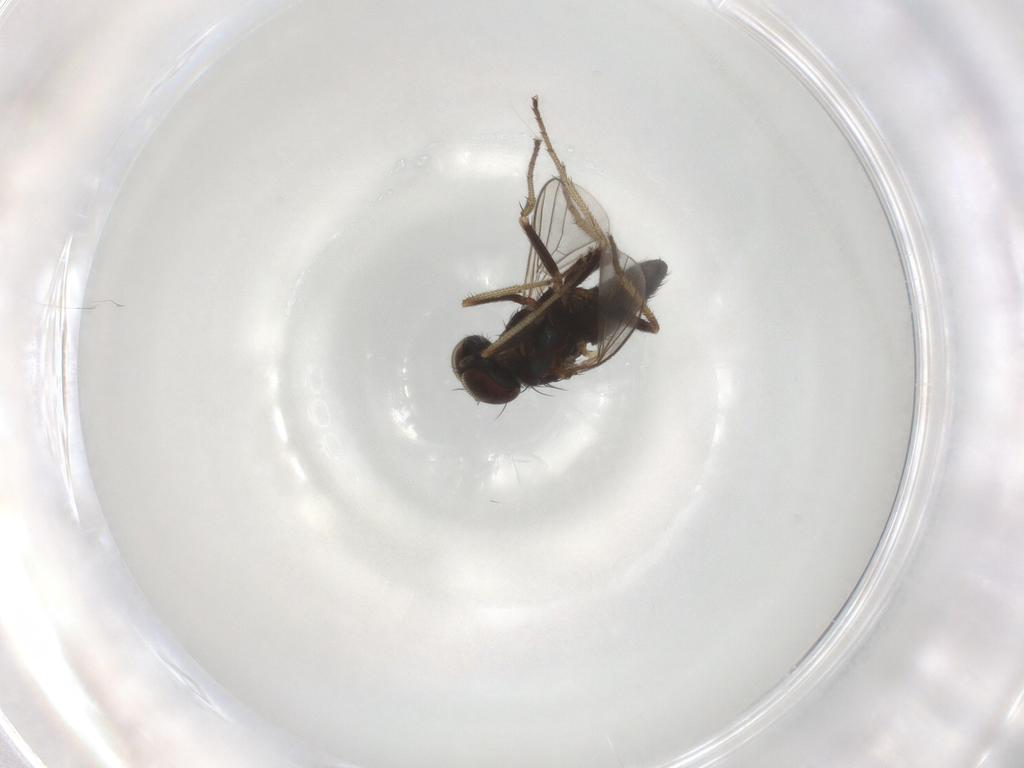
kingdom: Animalia
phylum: Arthropoda
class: Insecta
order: Diptera
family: Dolichopodidae
